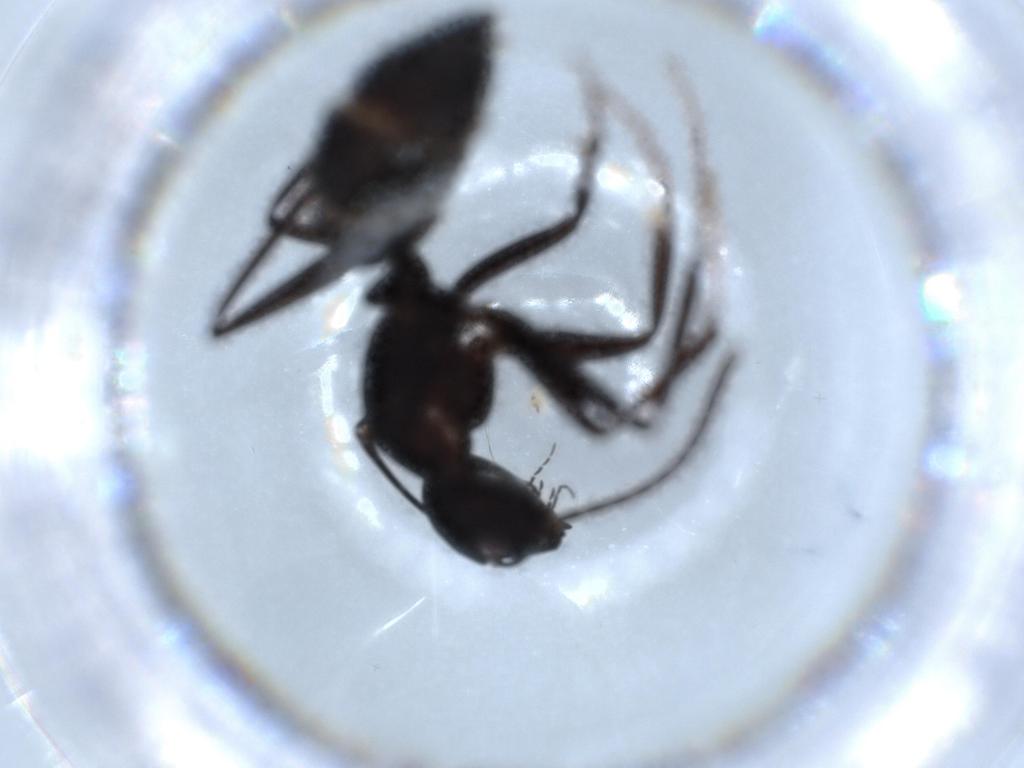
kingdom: Animalia
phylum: Arthropoda
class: Insecta
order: Hymenoptera
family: Formicidae
